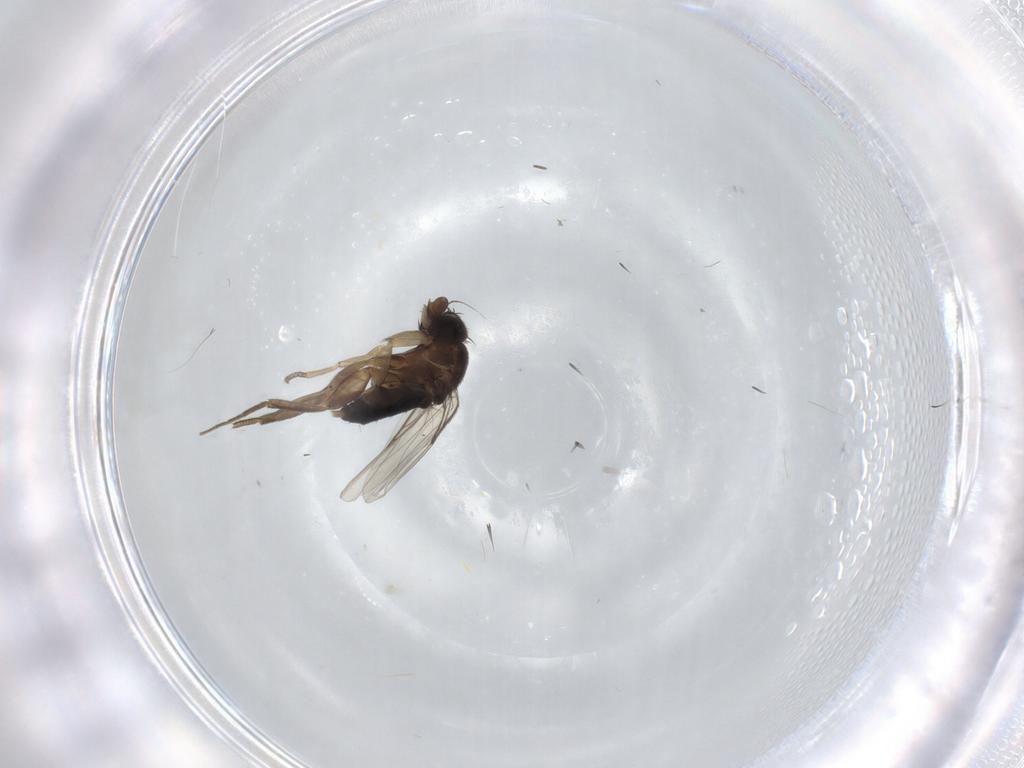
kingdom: Animalia
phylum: Arthropoda
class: Insecta
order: Diptera
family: Phoridae
